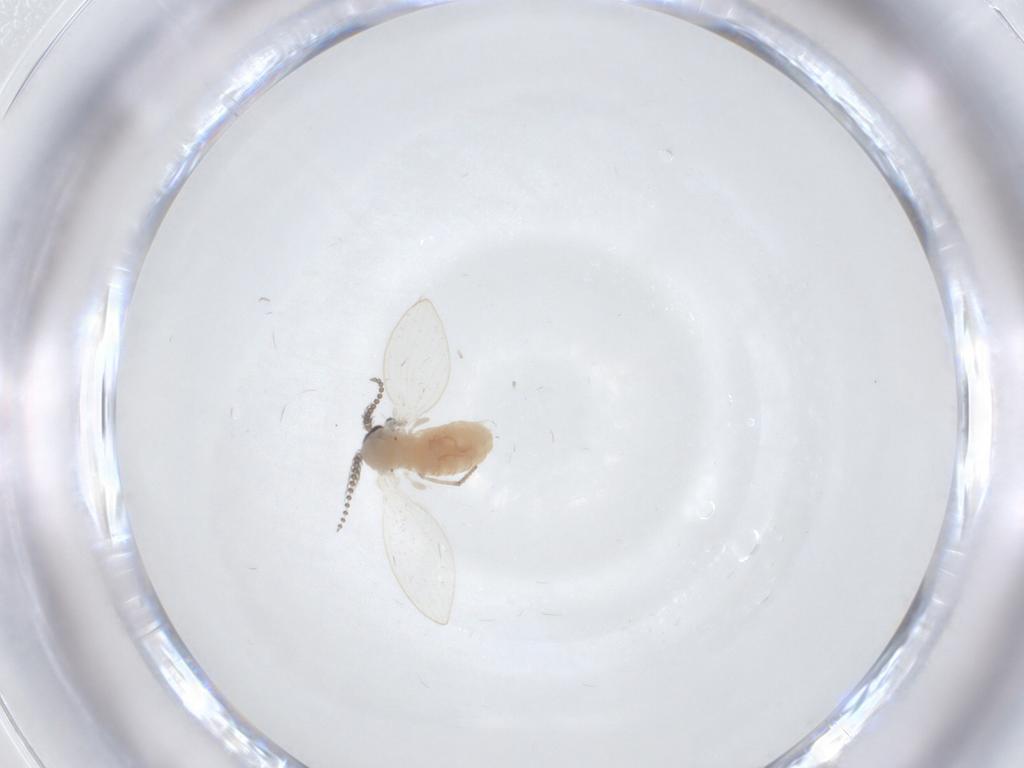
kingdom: Animalia
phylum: Arthropoda
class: Insecta
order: Diptera
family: Psychodidae
